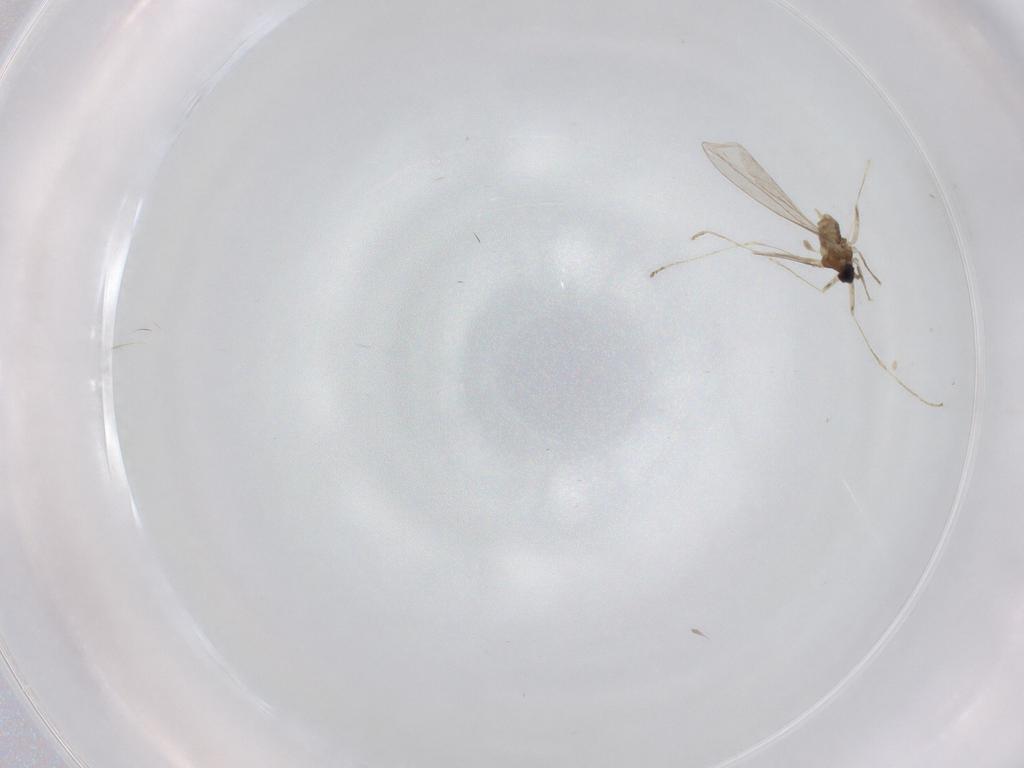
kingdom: Animalia
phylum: Arthropoda
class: Insecta
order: Diptera
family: Cecidomyiidae
